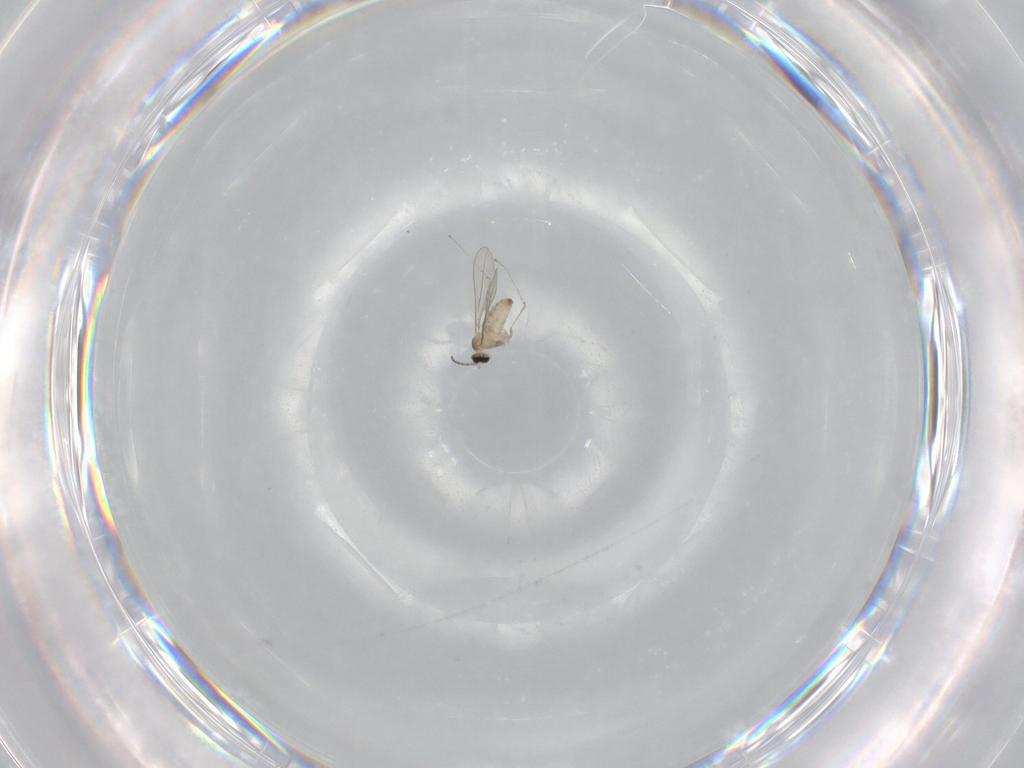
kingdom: Animalia
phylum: Arthropoda
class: Insecta
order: Diptera
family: Cecidomyiidae
